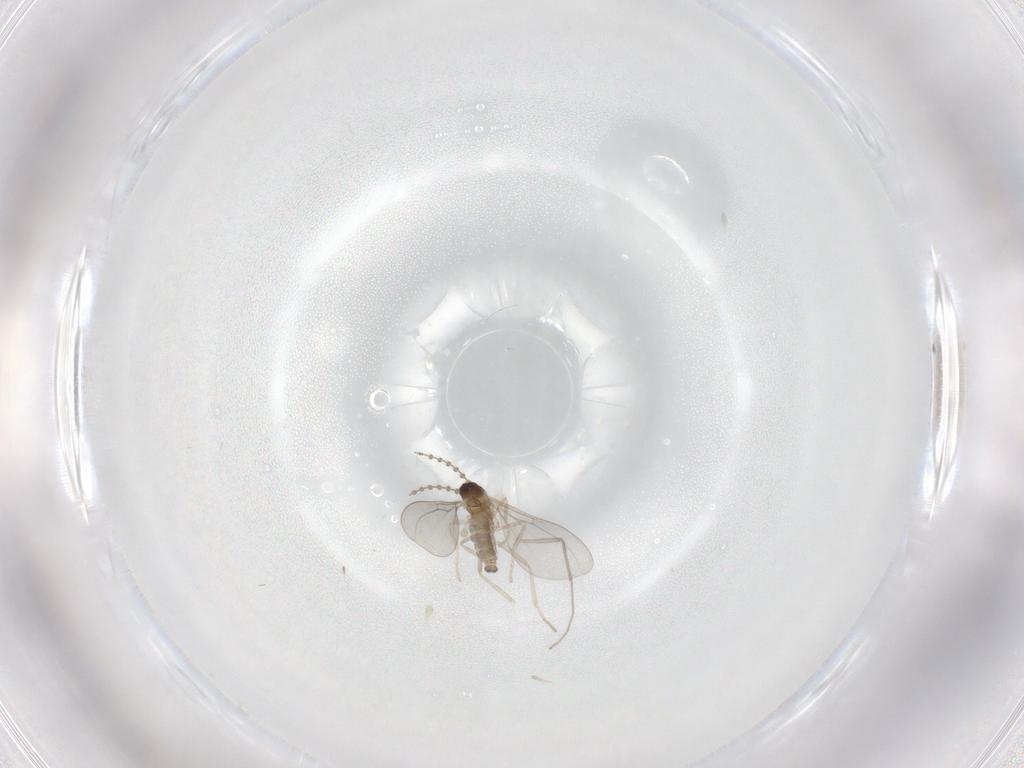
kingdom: Animalia
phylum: Arthropoda
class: Insecta
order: Diptera
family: Cecidomyiidae
